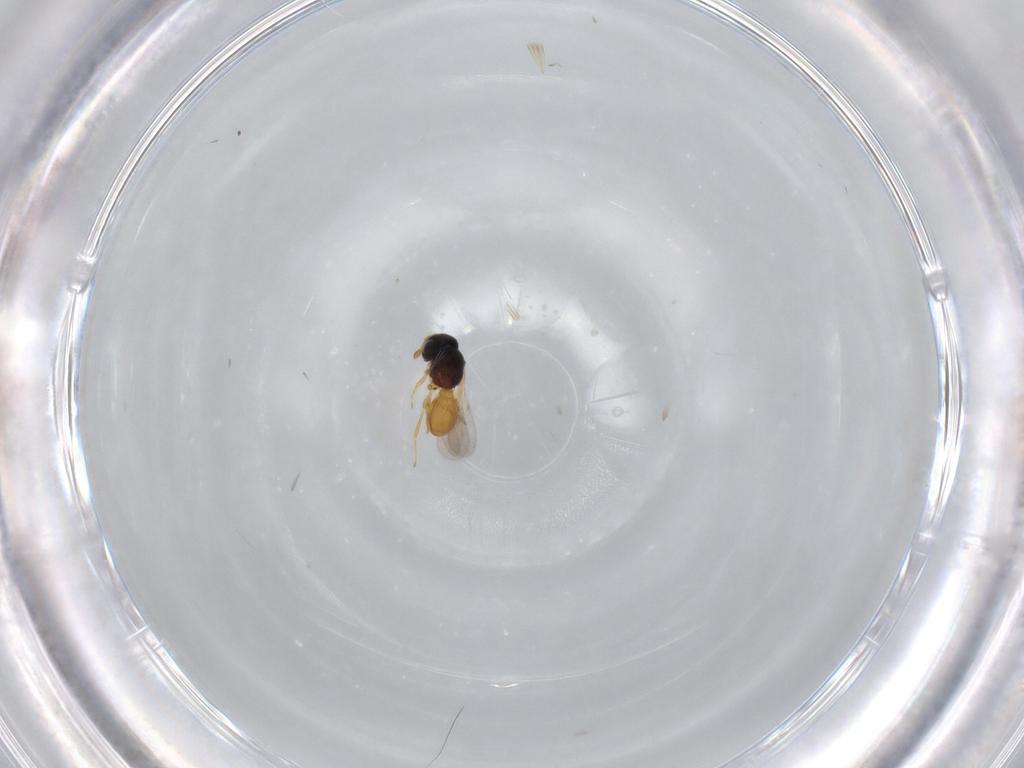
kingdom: Animalia
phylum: Arthropoda
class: Insecta
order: Hymenoptera
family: Scelionidae
